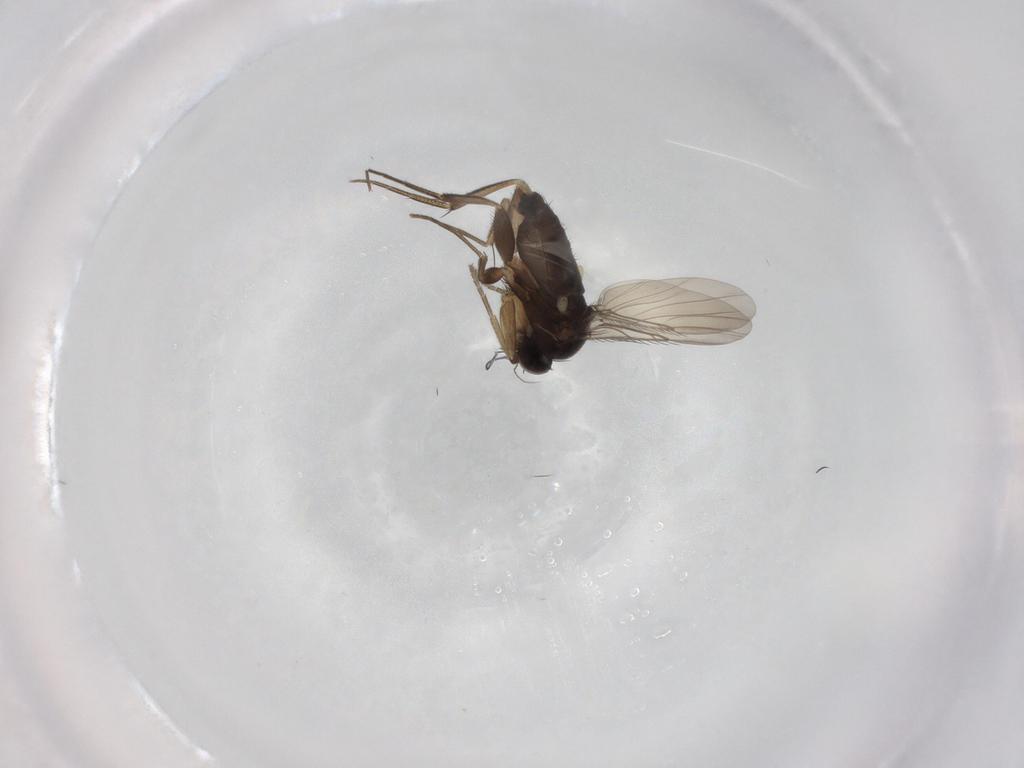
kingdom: Animalia
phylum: Arthropoda
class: Insecta
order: Diptera
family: Phoridae
